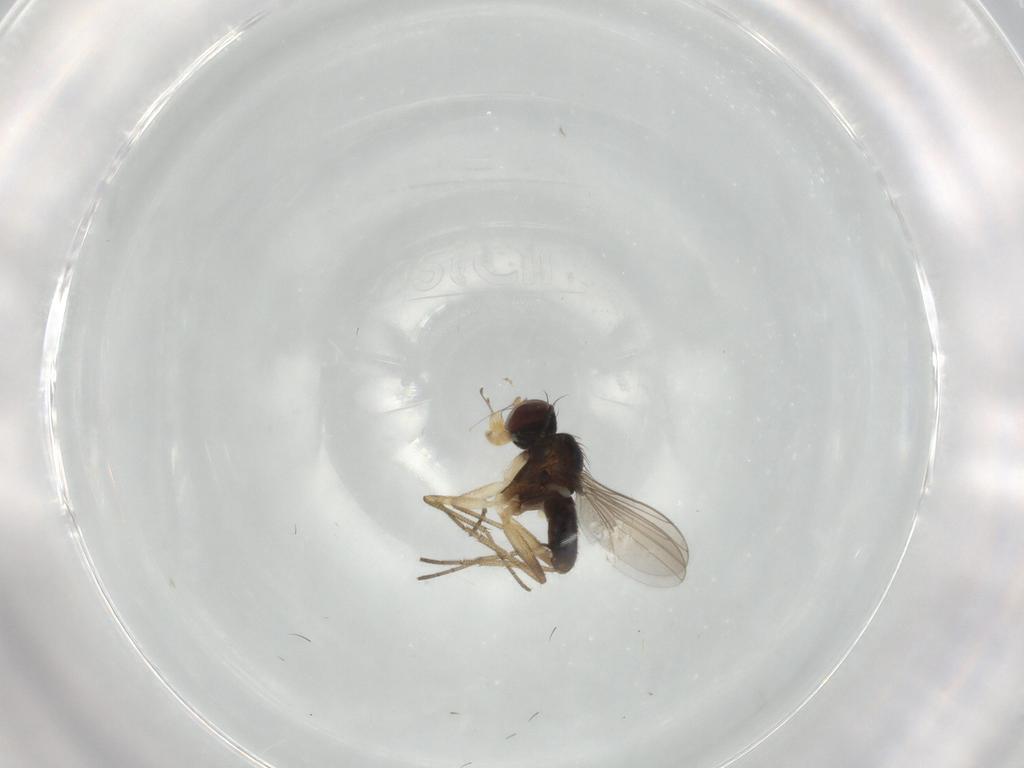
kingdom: Animalia
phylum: Arthropoda
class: Insecta
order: Diptera
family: Dolichopodidae
